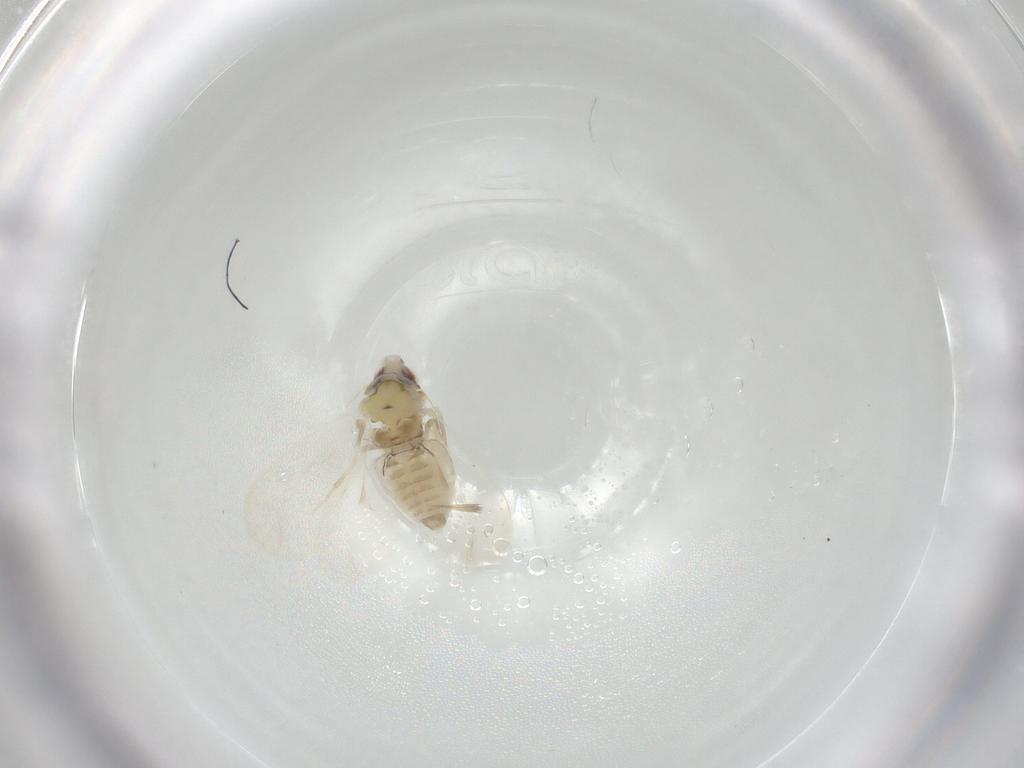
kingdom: Animalia
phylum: Arthropoda
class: Insecta
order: Hemiptera
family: Aleyrodidae
